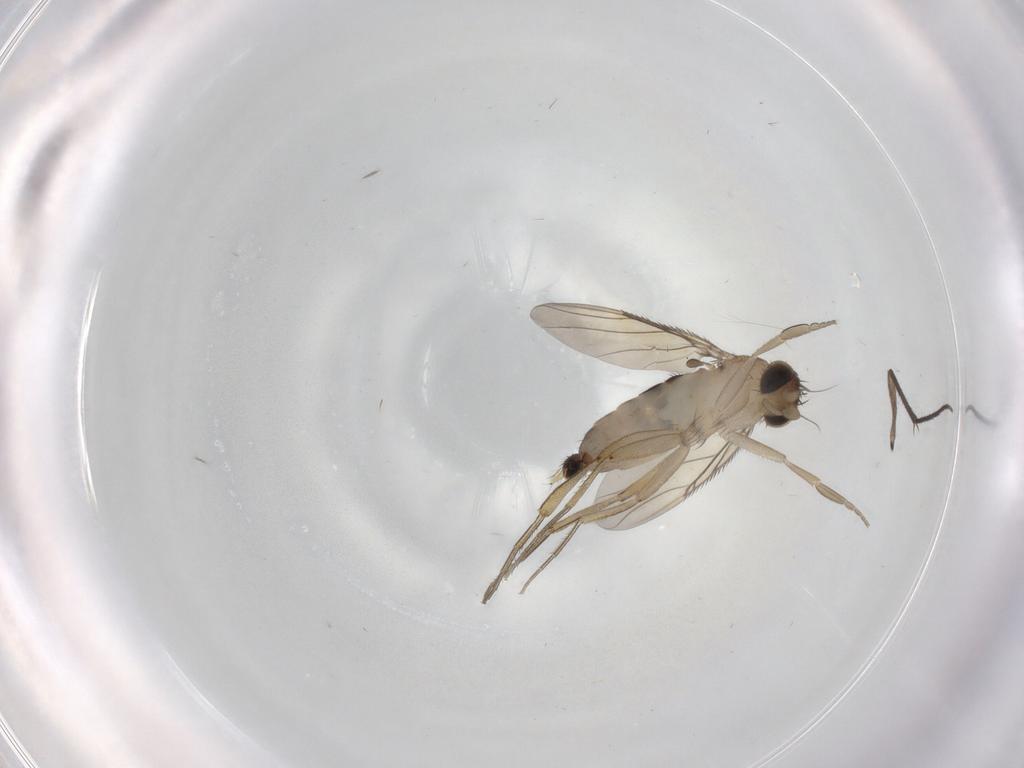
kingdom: Animalia
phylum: Arthropoda
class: Insecta
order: Diptera
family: Phoridae
